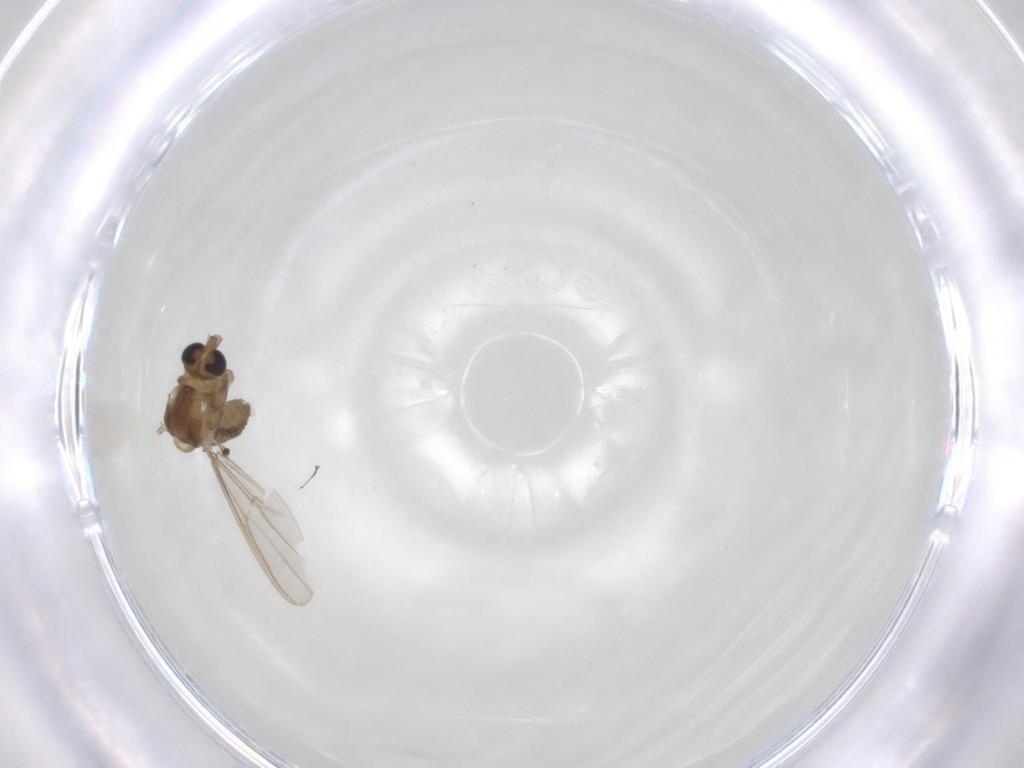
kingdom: Animalia
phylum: Arthropoda
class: Insecta
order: Diptera
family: Chironomidae
